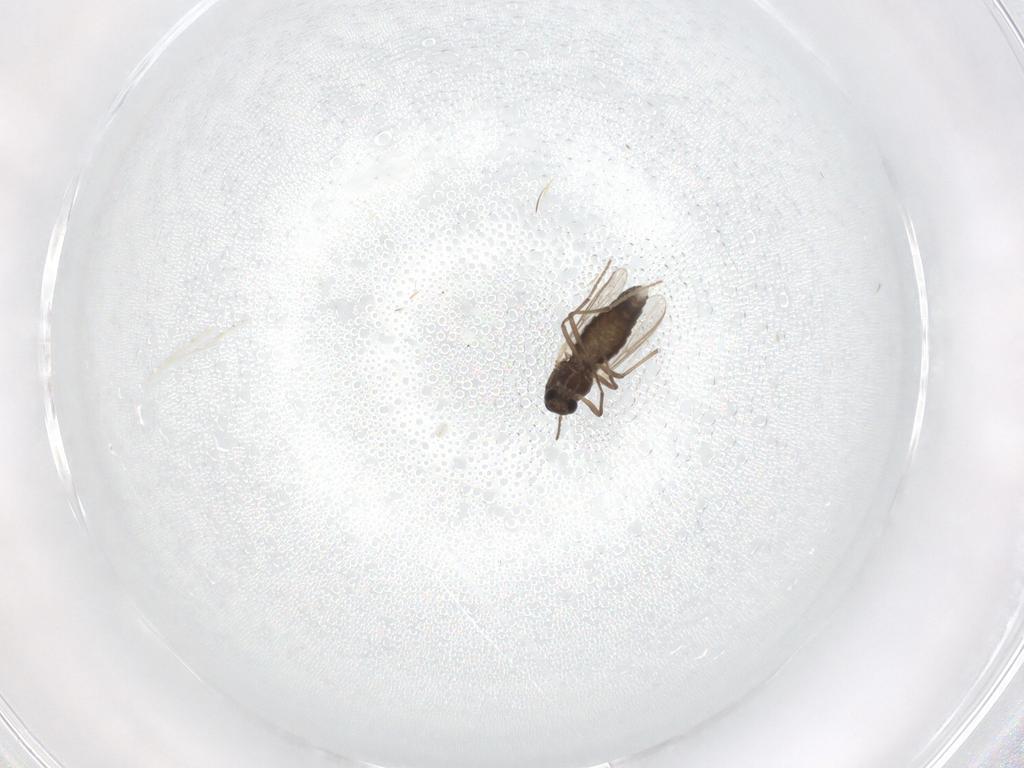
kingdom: Animalia
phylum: Arthropoda
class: Insecta
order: Diptera
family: Chironomidae
